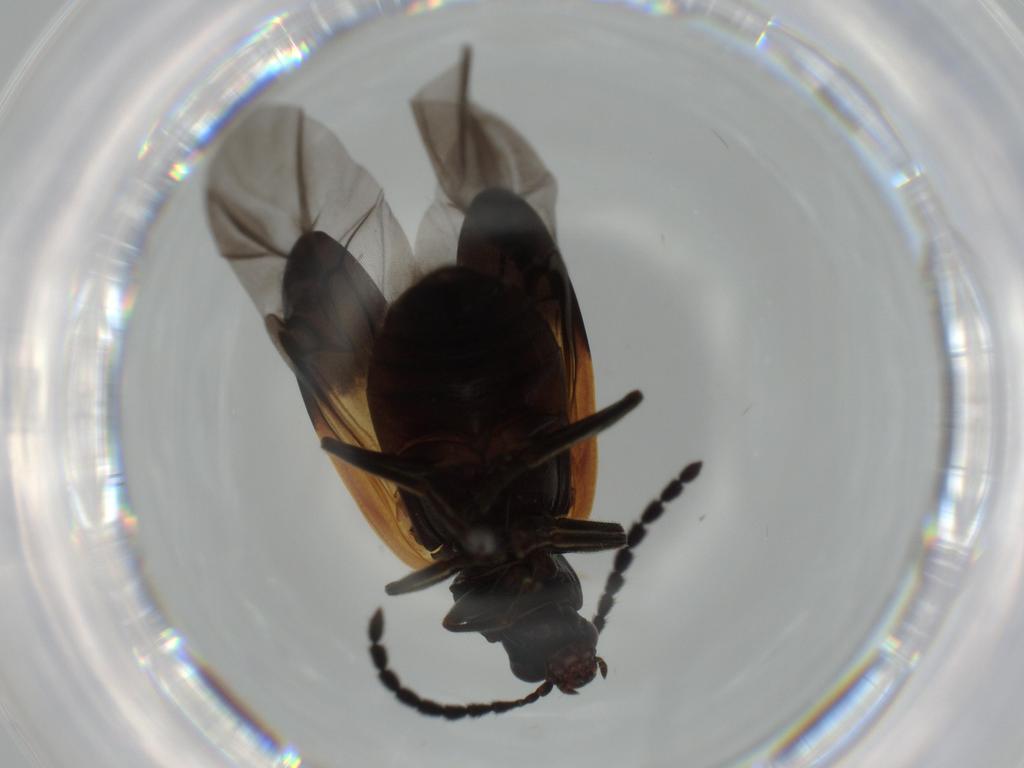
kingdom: Animalia
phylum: Arthropoda
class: Insecta
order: Coleoptera
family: Chrysomelidae
